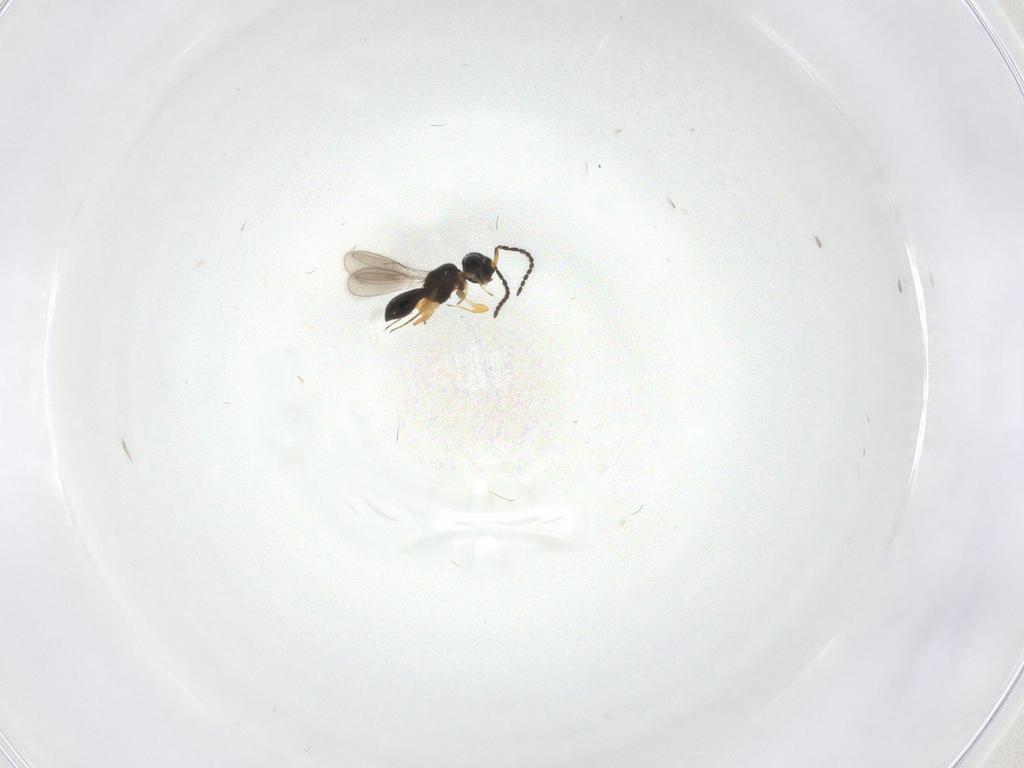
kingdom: Animalia
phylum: Arthropoda
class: Insecta
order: Hymenoptera
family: Scelionidae
